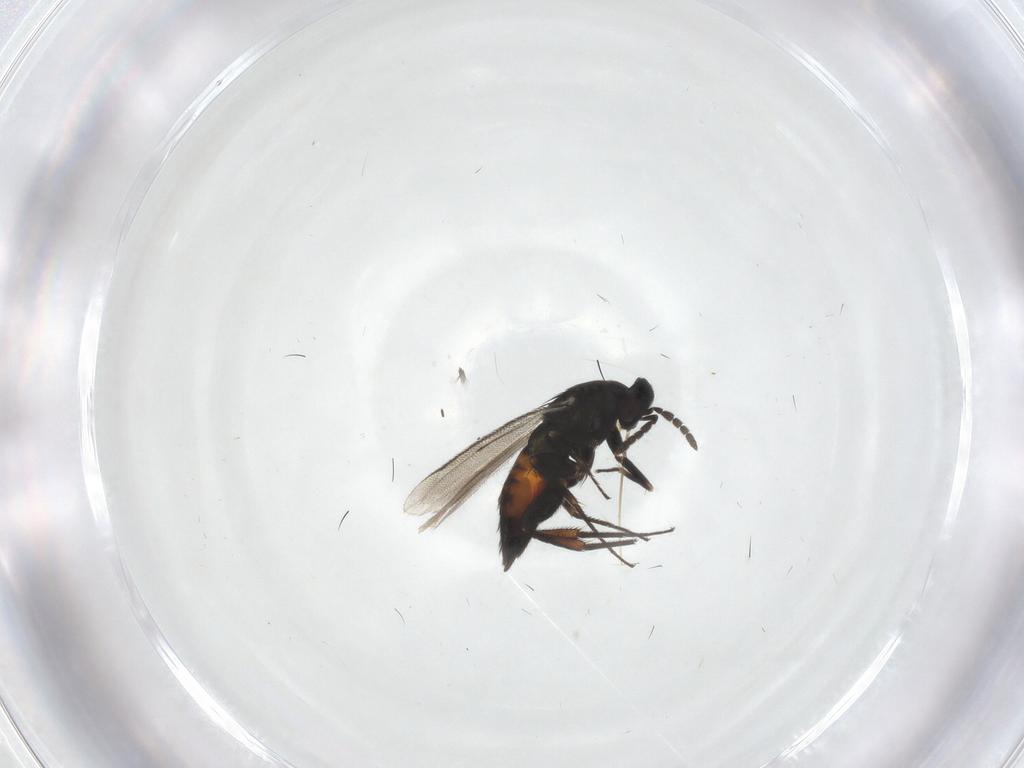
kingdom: Animalia
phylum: Arthropoda
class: Insecta
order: Hymenoptera
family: Eulophidae
